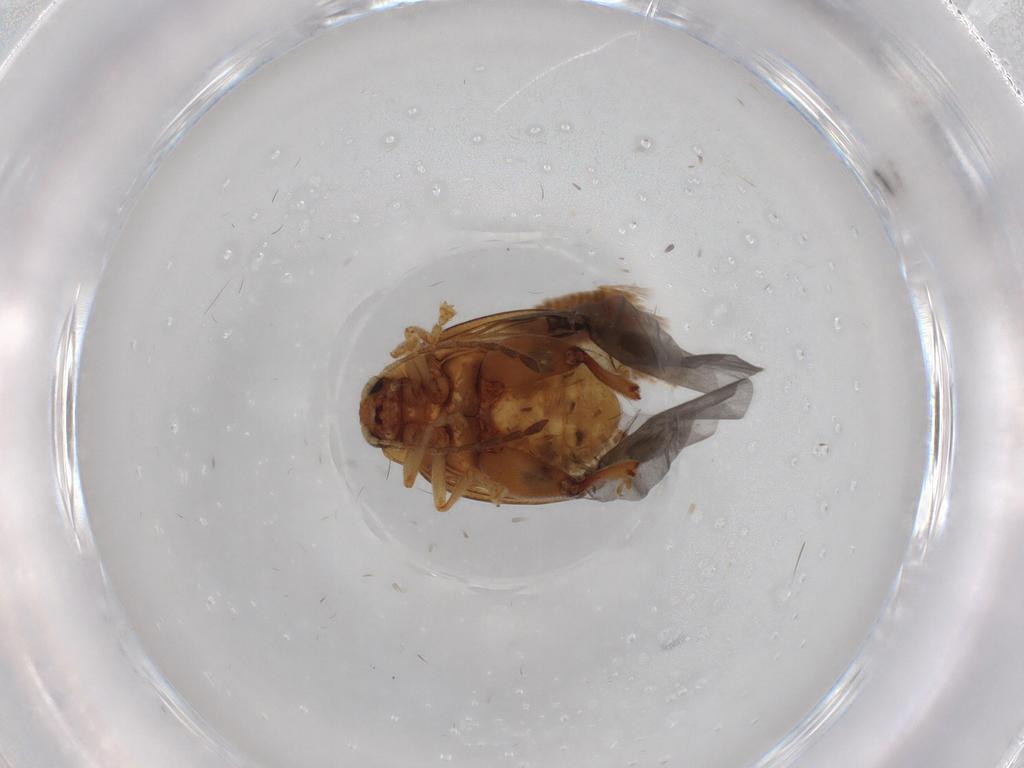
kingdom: Animalia
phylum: Arthropoda
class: Insecta
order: Coleoptera
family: Chrysomelidae
